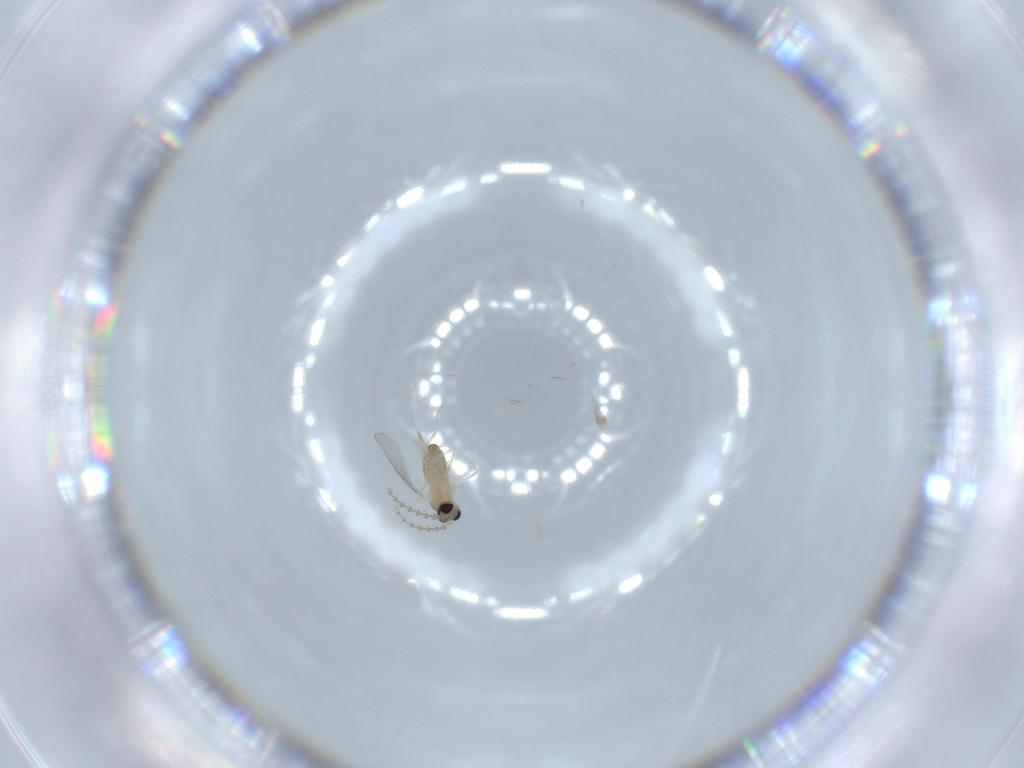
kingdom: Animalia
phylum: Arthropoda
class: Insecta
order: Diptera
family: Cecidomyiidae
